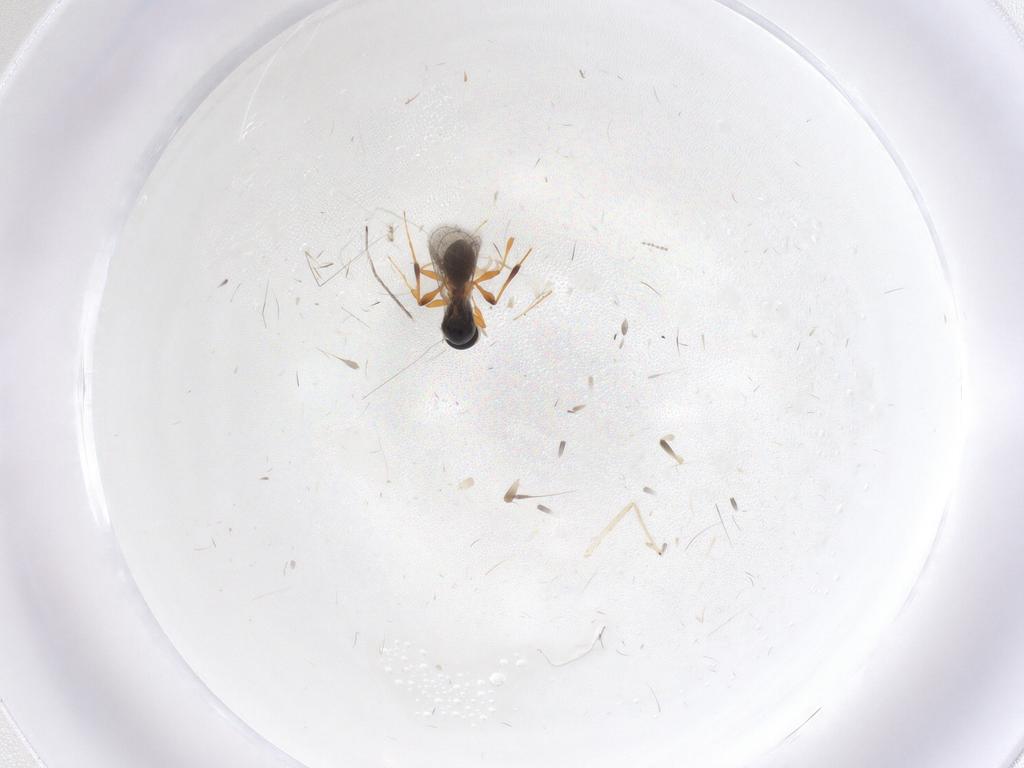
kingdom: Animalia
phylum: Arthropoda
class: Insecta
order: Hymenoptera
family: Platygastridae
